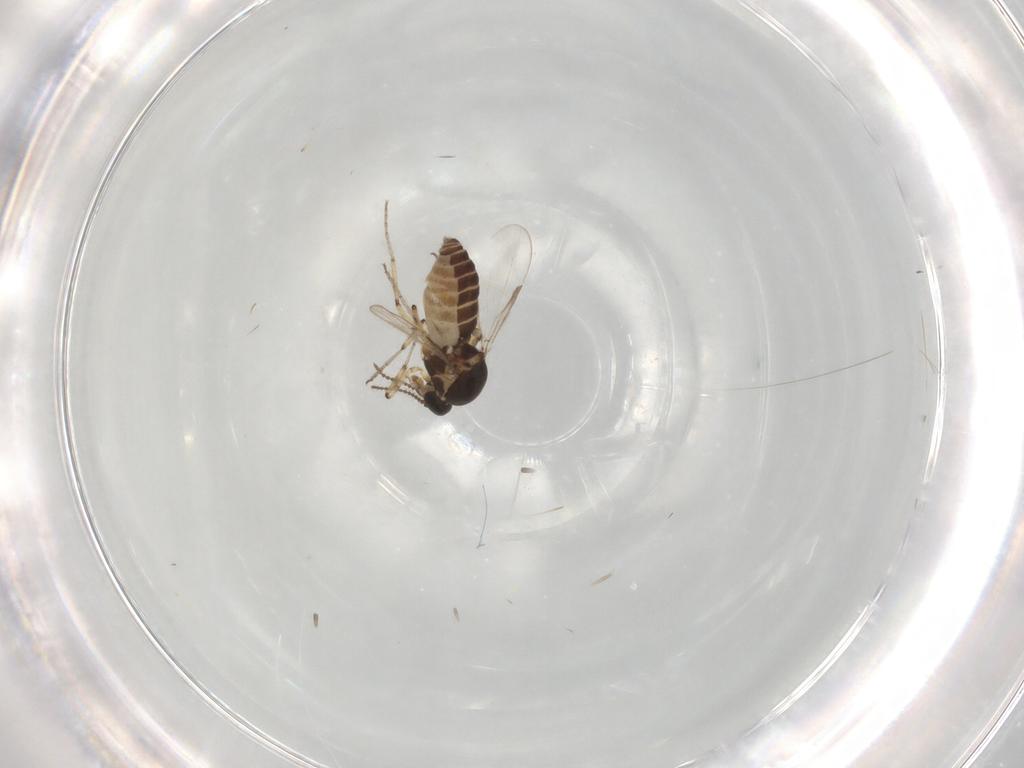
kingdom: Animalia
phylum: Arthropoda
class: Insecta
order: Diptera
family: Ceratopogonidae
